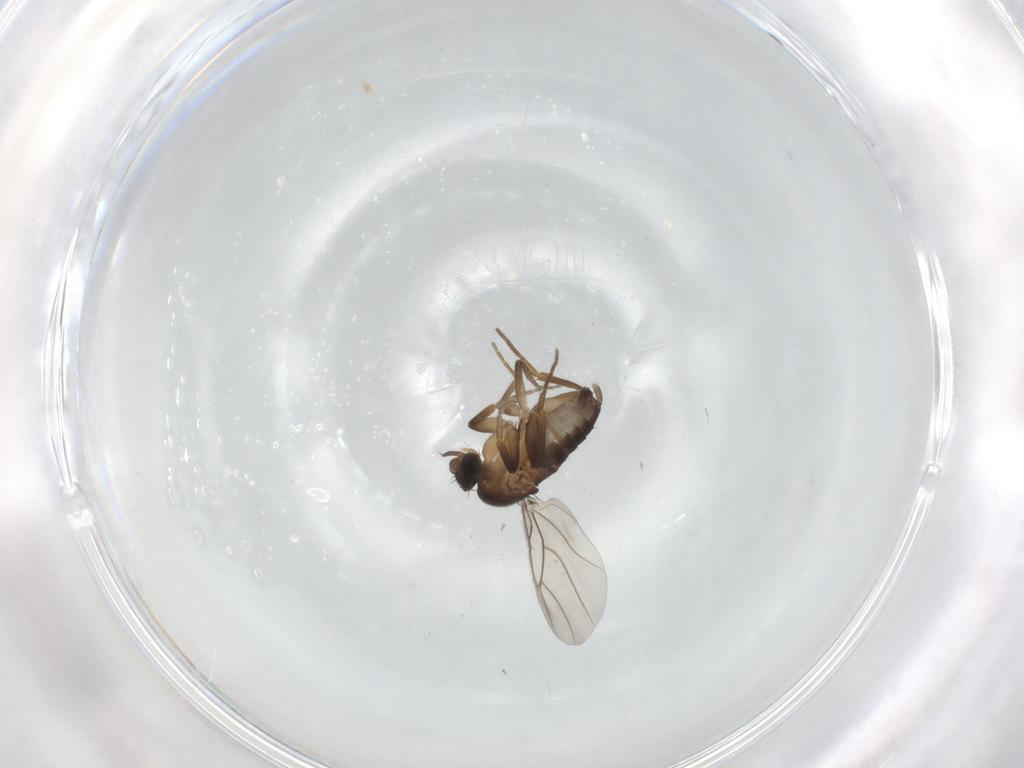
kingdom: Animalia
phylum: Arthropoda
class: Insecta
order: Diptera
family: Phoridae
